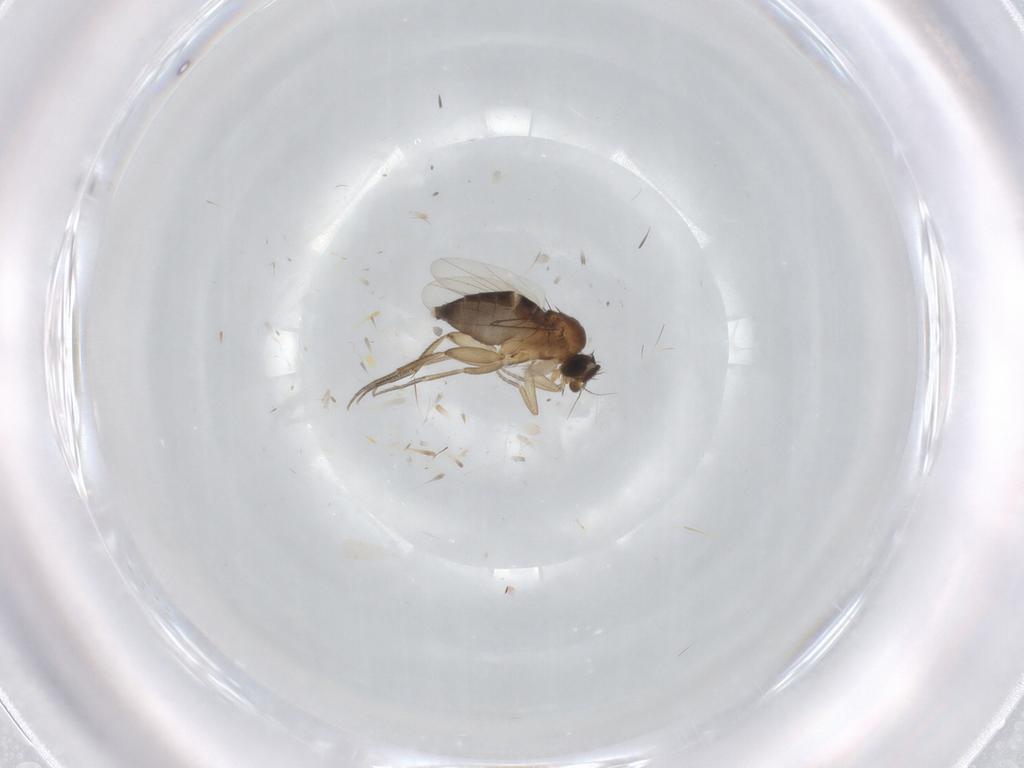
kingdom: Animalia
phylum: Arthropoda
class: Insecta
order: Diptera
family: Phoridae
